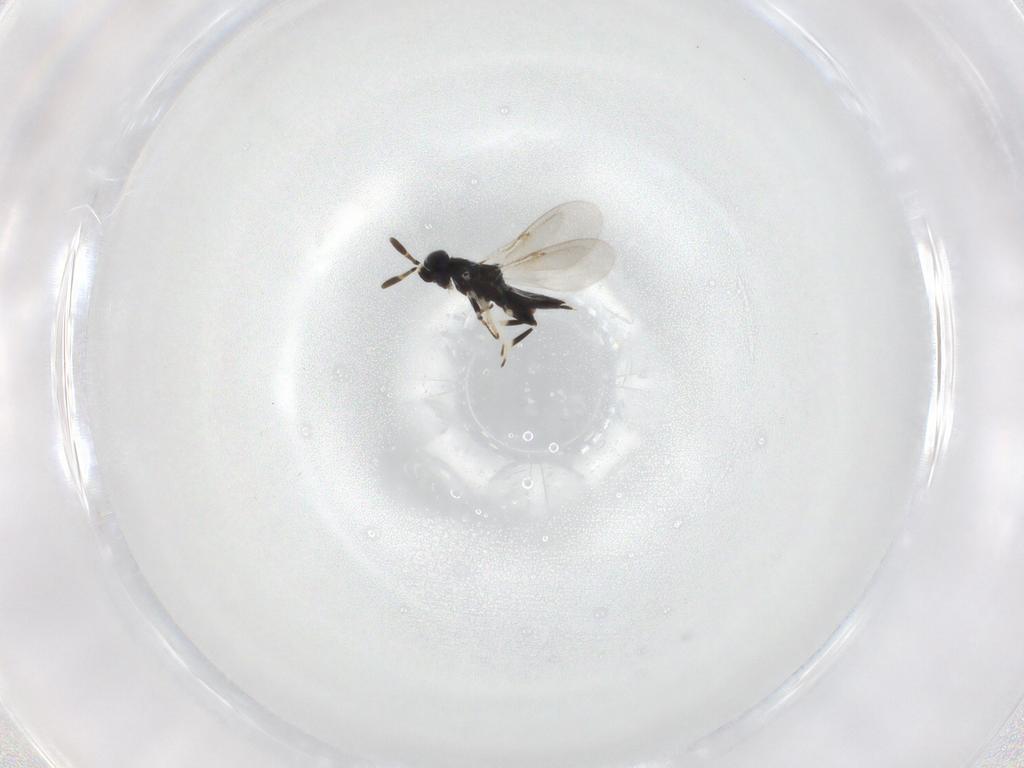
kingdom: Animalia
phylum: Arthropoda
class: Insecta
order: Hymenoptera
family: Encyrtidae
